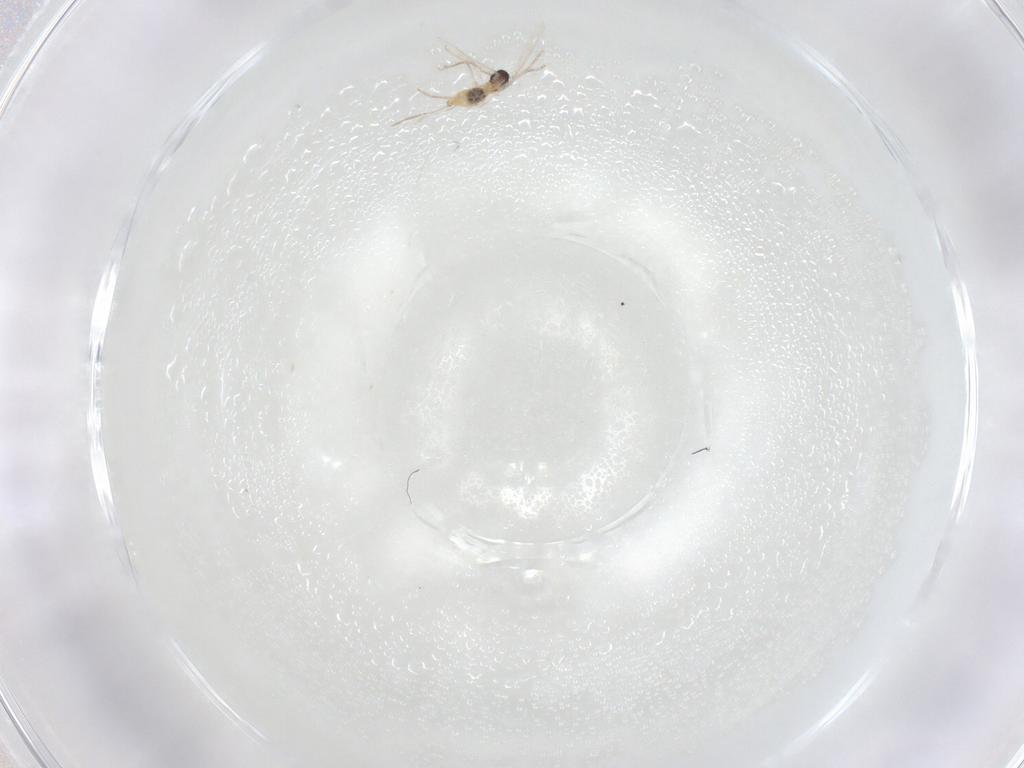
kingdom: Animalia
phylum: Arthropoda
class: Insecta
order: Diptera
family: Cecidomyiidae
